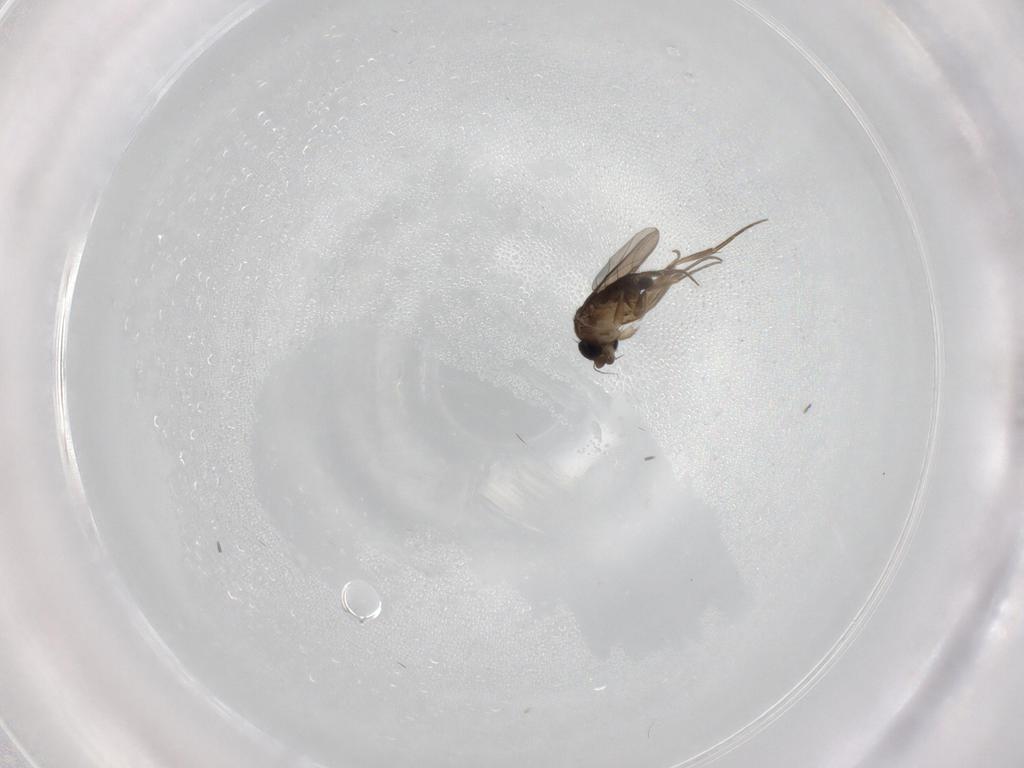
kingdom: Animalia
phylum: Arthropoda
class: Insecta
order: Diptera
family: Phoridae
